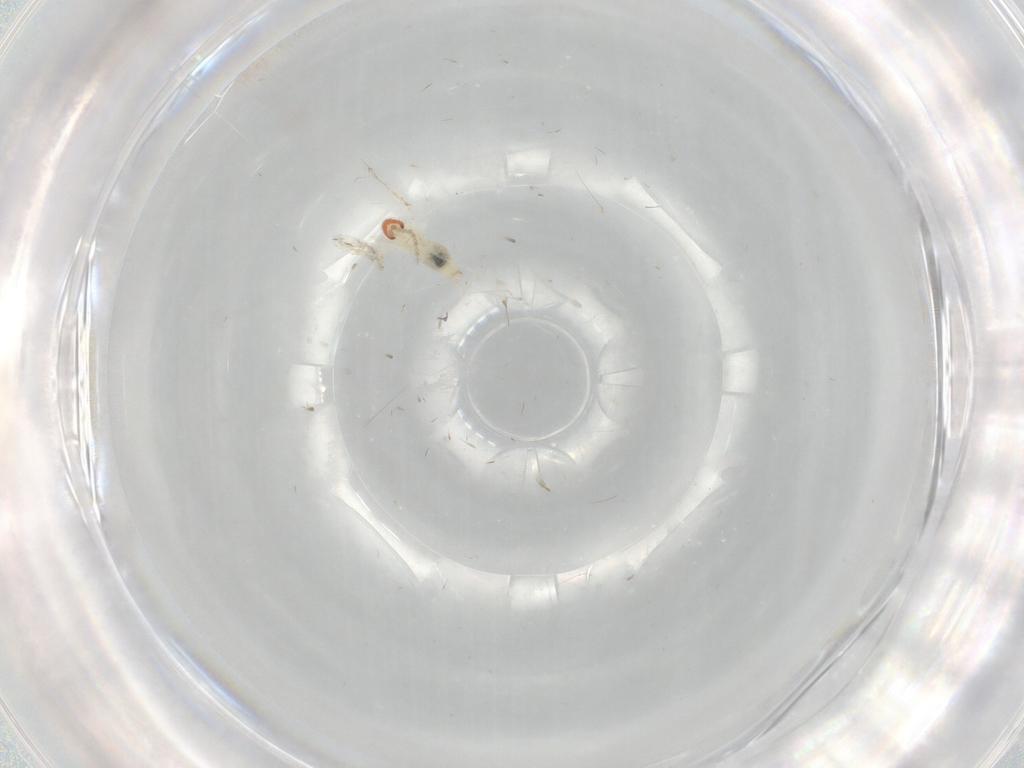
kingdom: Animalia
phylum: Arthropoda
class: Insecta
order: Diptera
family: Cecidomyiidae
